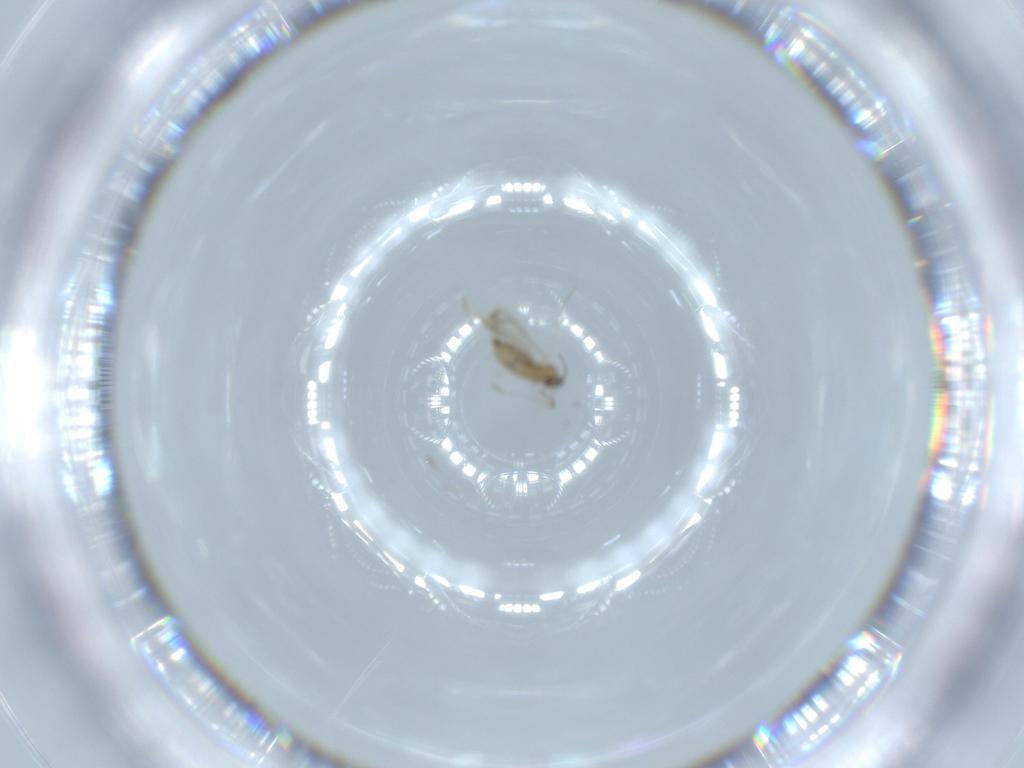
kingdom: Animalia
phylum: Arthropoda
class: Insecta
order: Diptera
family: Cecidomyiidae
